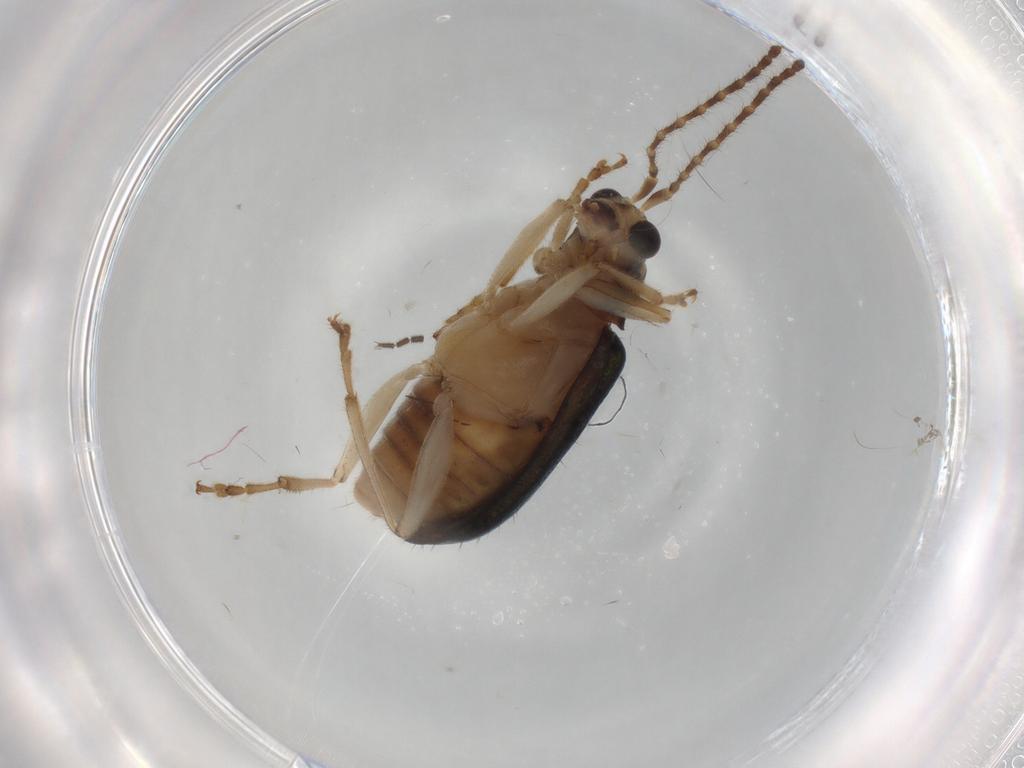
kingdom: Animalia
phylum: Arthropoda
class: Insecta
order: Coleoptera
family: Chrysomelidae
